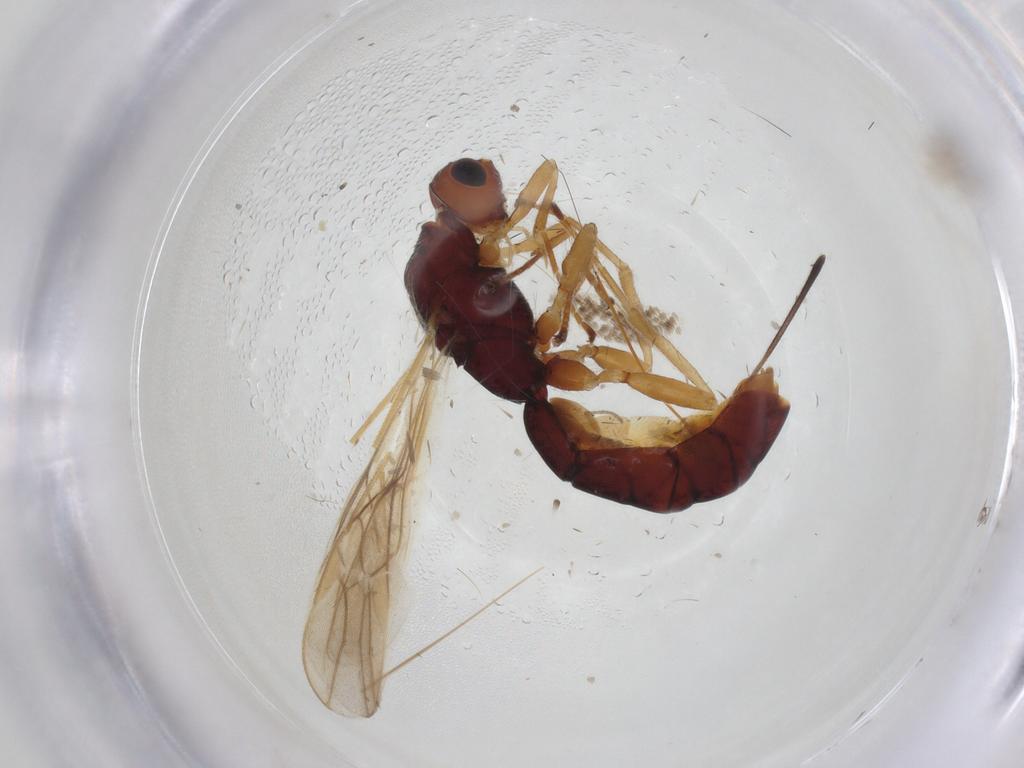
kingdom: Animalia
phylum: Arthropoda
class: Insecta
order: Hymenoptera
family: Braconidae
